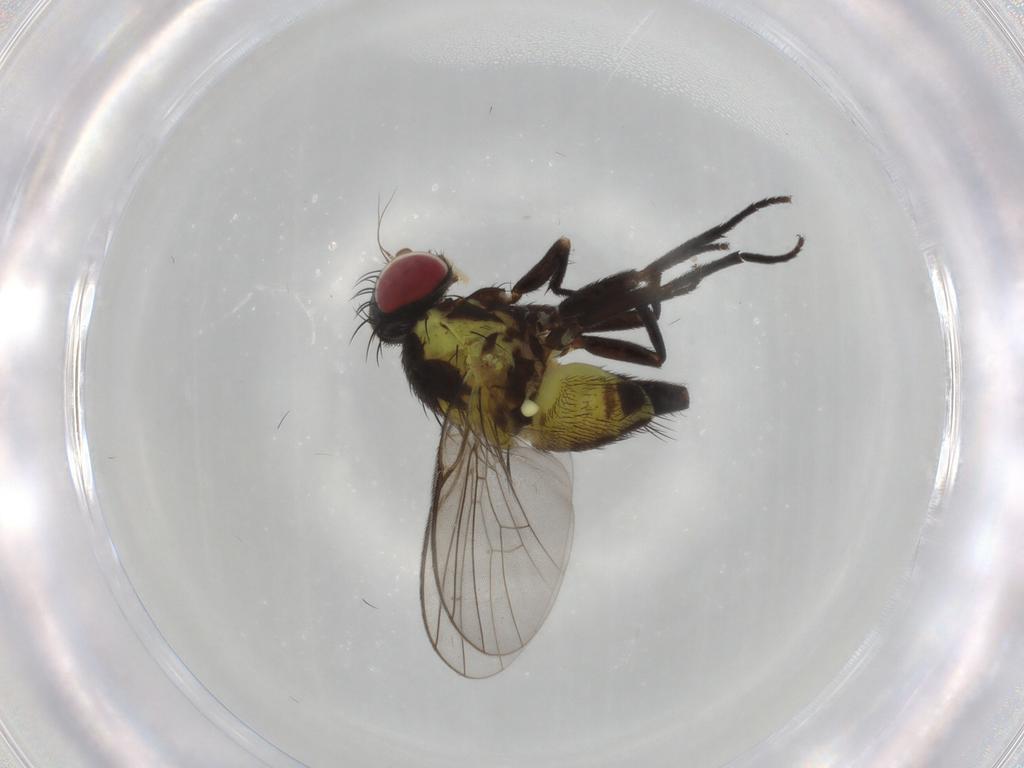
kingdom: Animalia
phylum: Arthropoda
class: Insecta
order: Diptera
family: Agromyzidae
